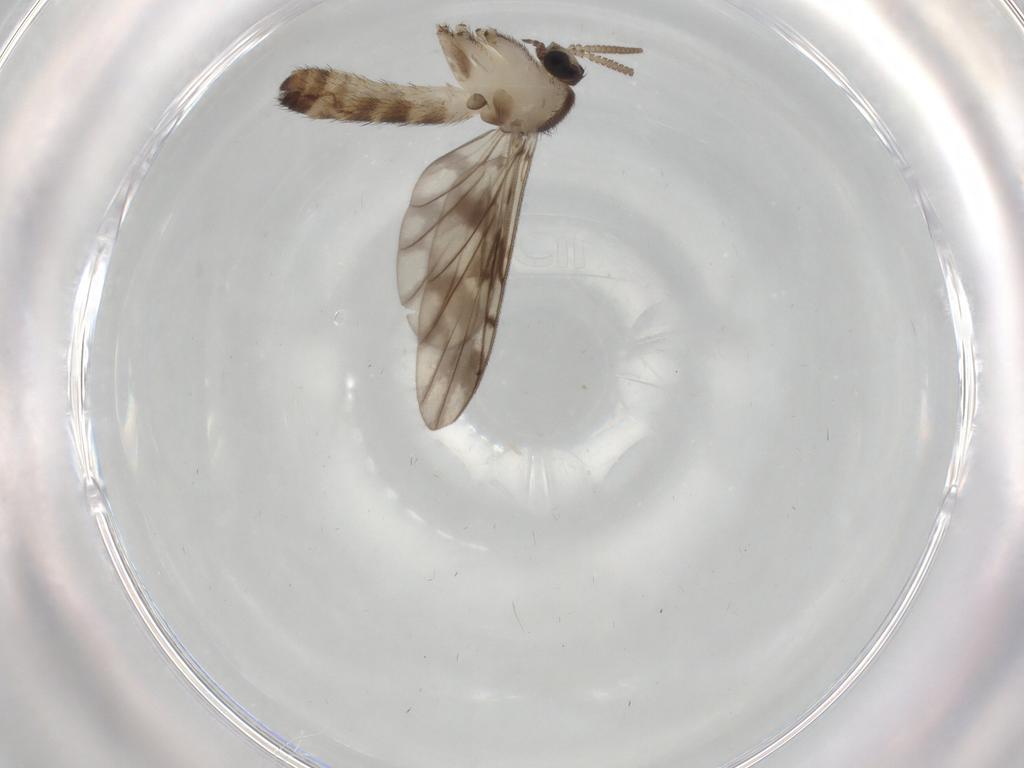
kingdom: Animalia
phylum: Arthropoda
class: Insecta
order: Diptera
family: Keroplatidae
